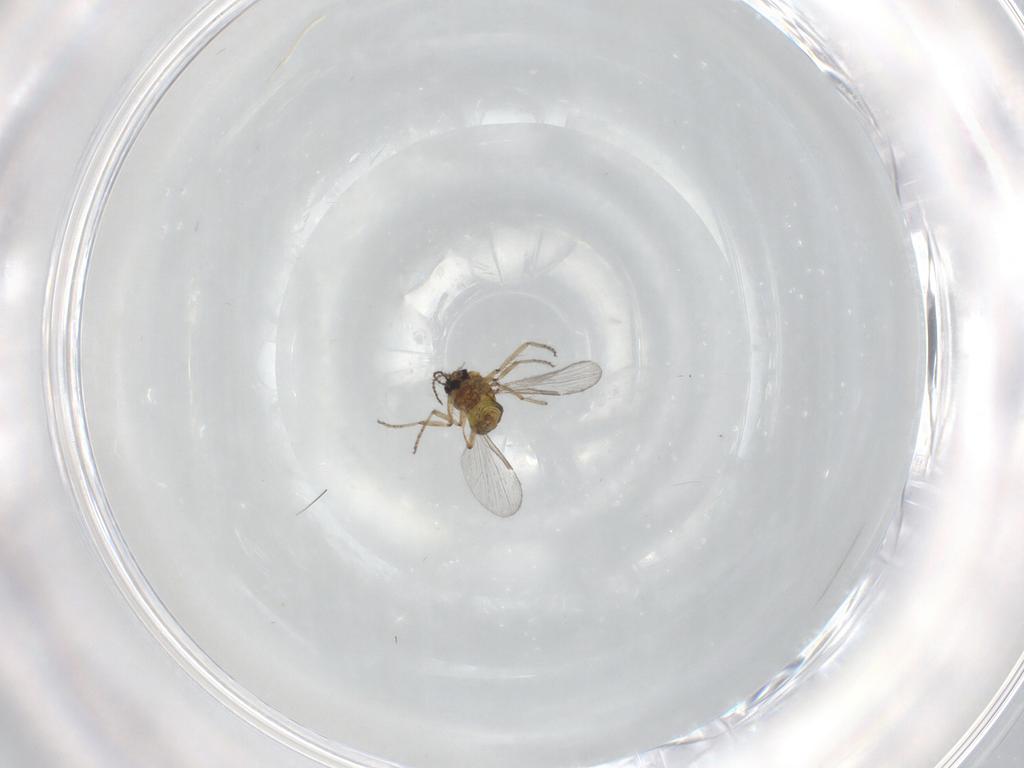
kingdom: Animalia
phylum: Arthropoda
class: Insecta
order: Diptera
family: Ceratopogonidae
